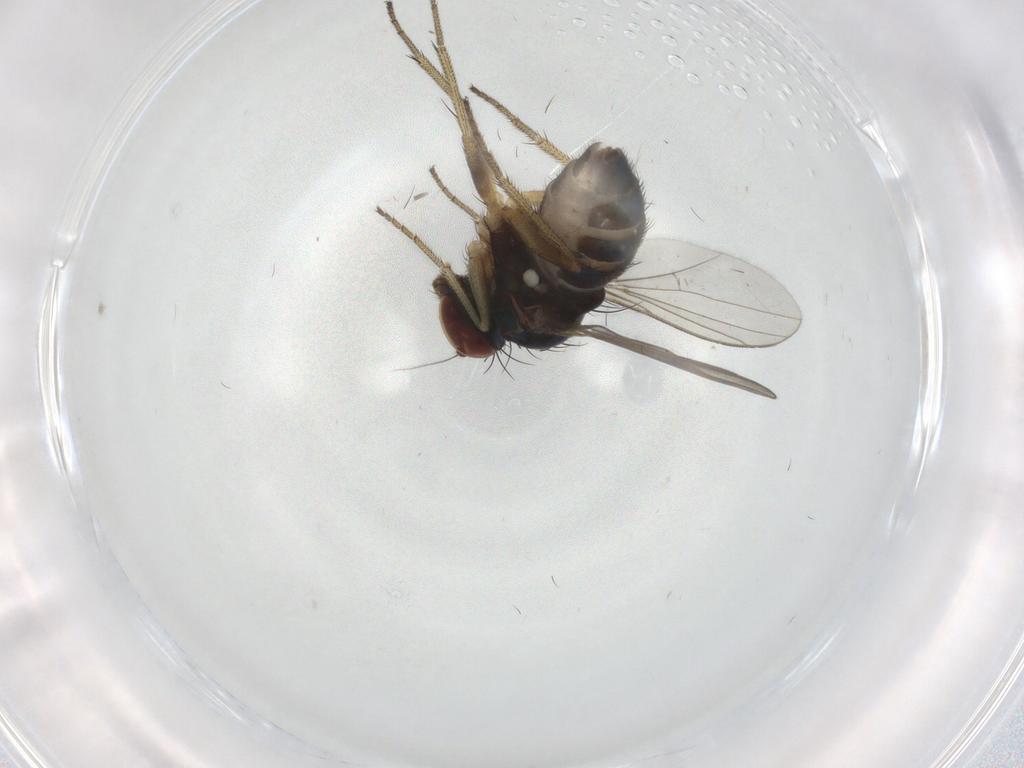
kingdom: Animalia
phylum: Arthropoda
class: Insecta
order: Diptera
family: Dolichopodidae
